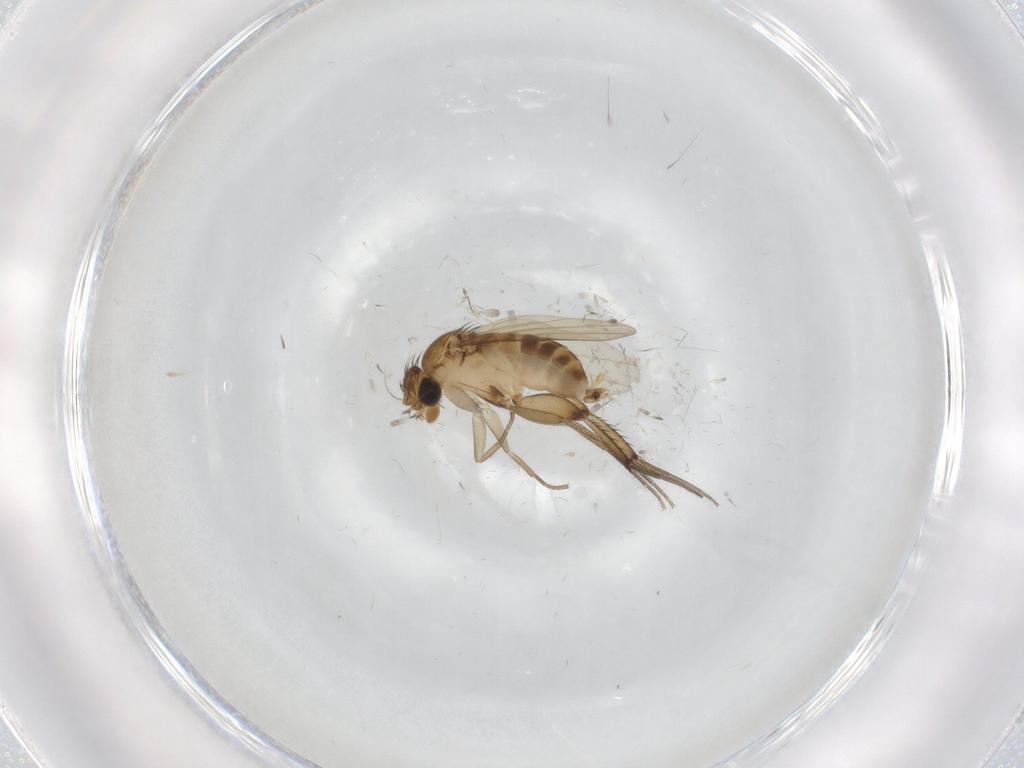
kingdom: Animalia
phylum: Arthropoda
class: Insecta
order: Diptera
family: Phoridae
